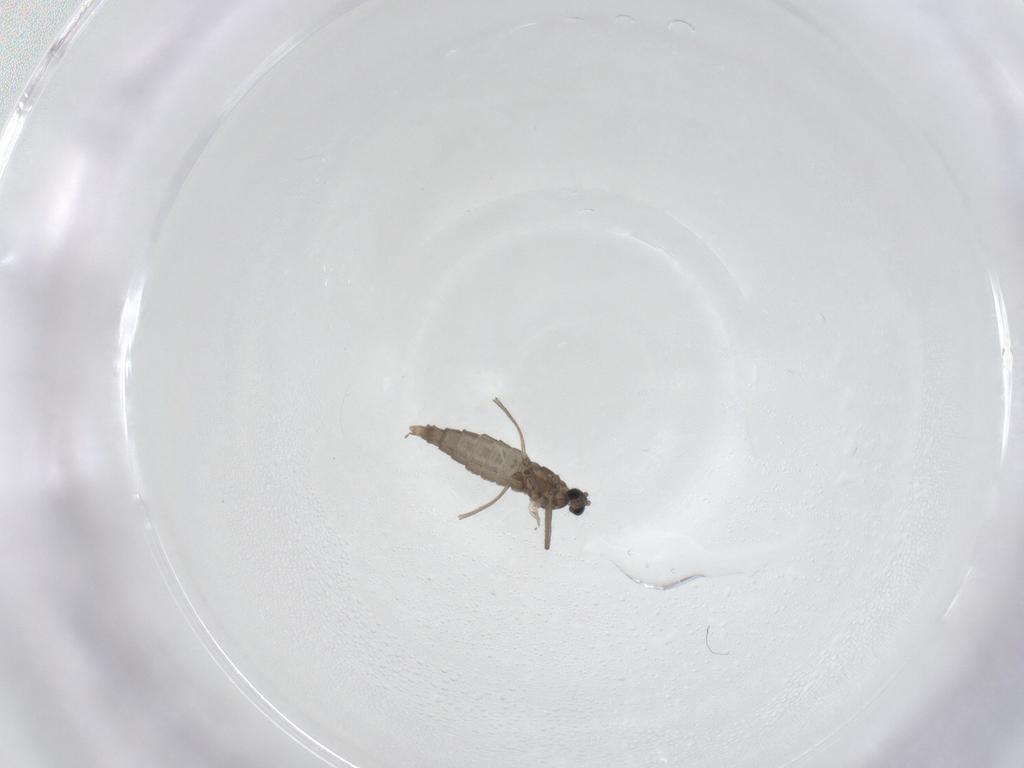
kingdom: Animalia
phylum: Arthropoda
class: Insecta
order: Diptera
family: Cecidomyiidae
